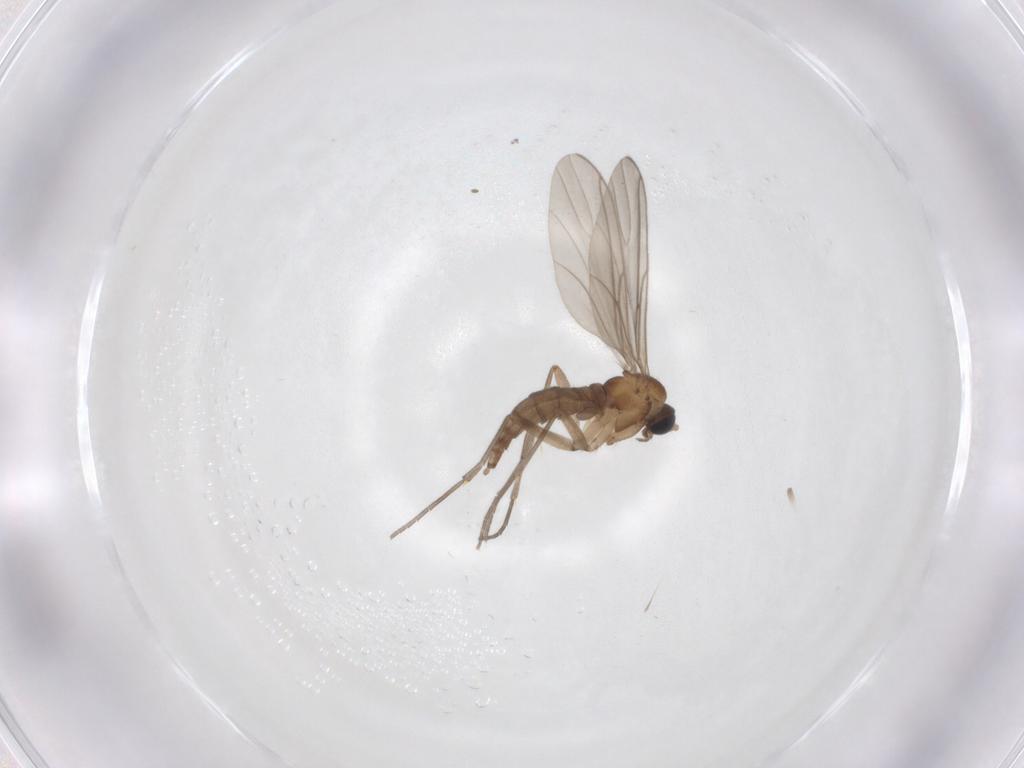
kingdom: Animalia
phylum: Arthropoda
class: Insecta
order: Diptera
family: Sciaridae
